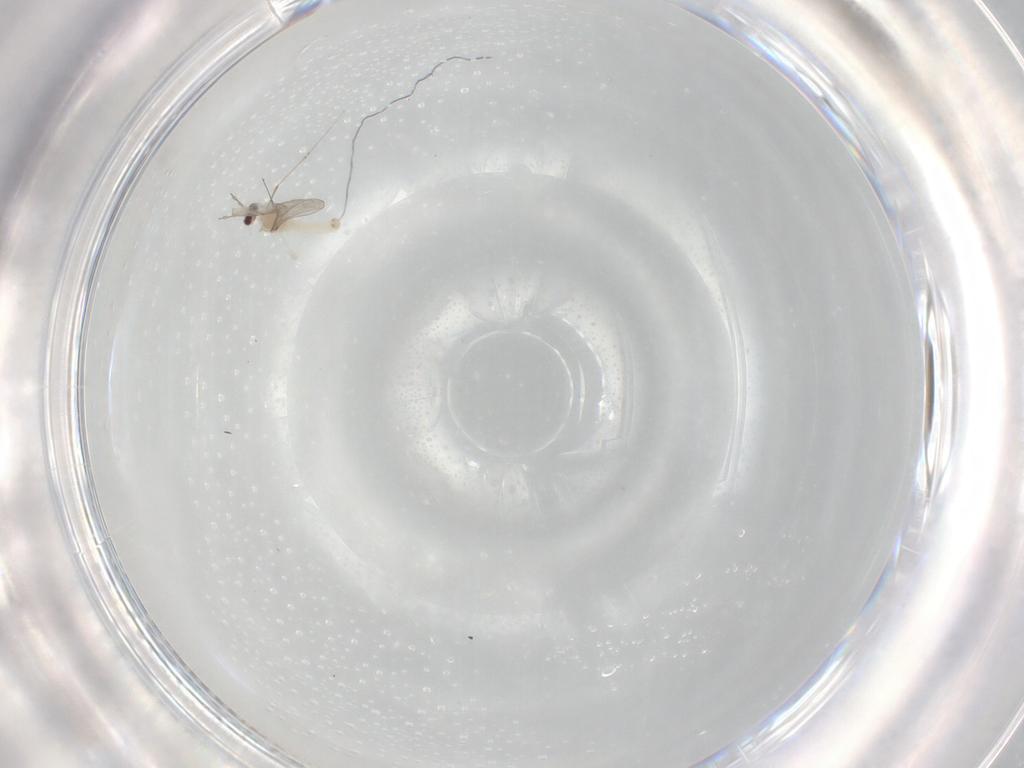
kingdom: Animalia
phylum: Arthropoda
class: Insecta
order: Diptera
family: Cecidomyiidae
